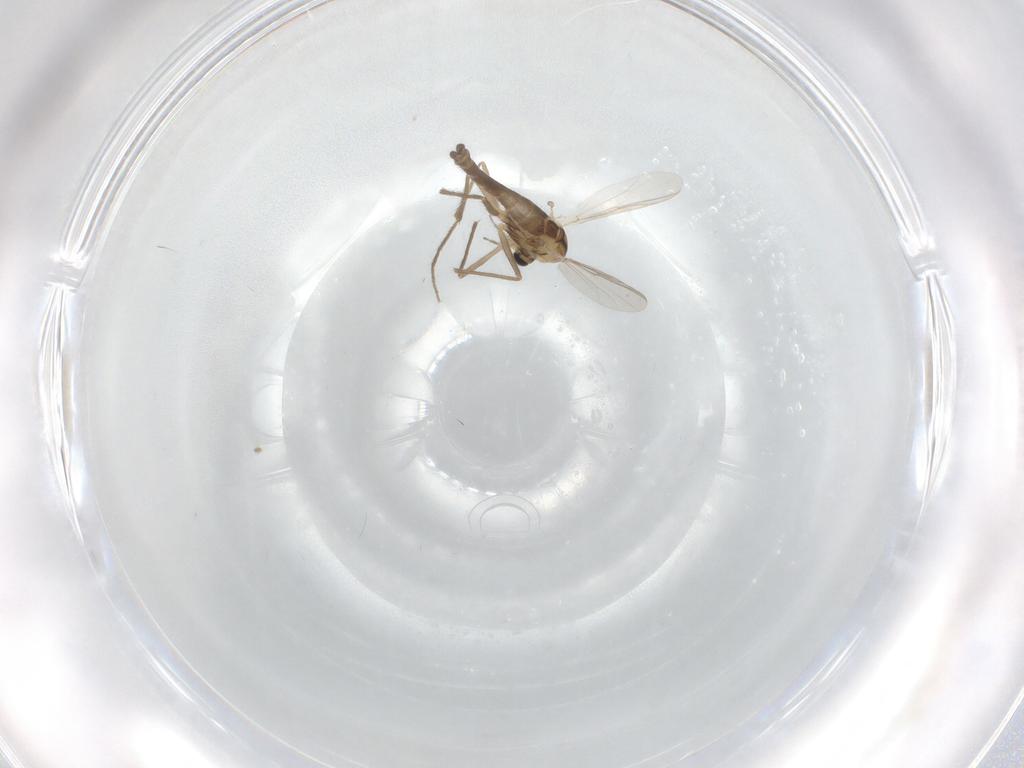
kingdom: Animalia
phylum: Arthropoda
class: Insecta
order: Diptera
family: Chironomidae
